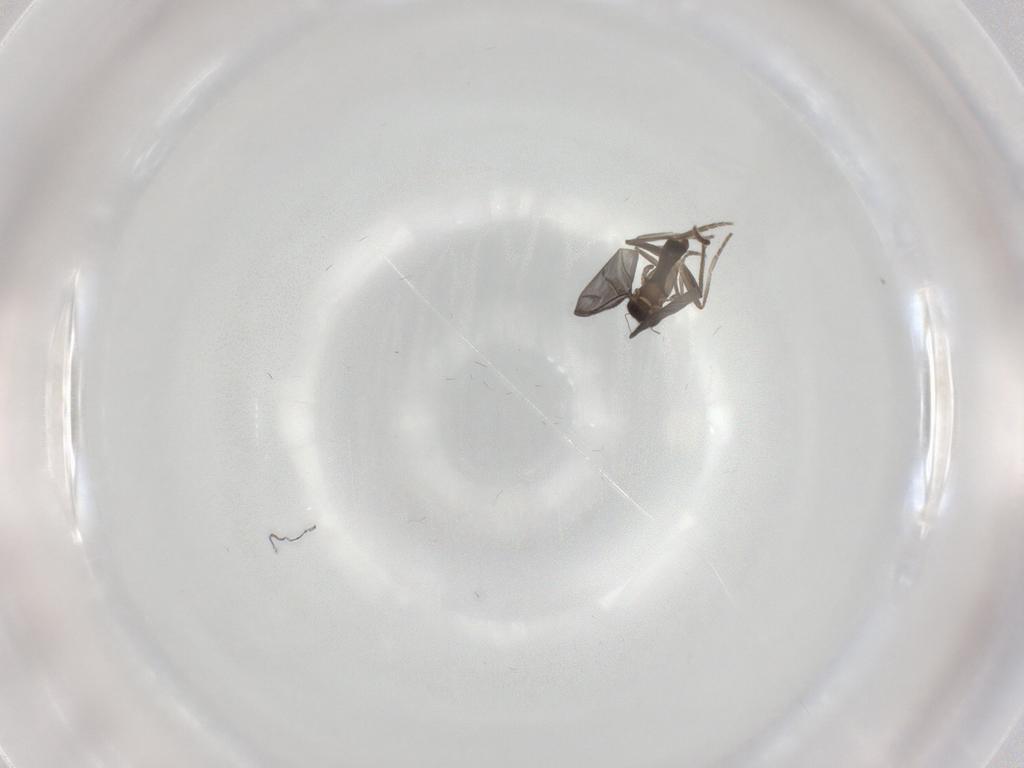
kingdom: Animalia
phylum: Arthropoda
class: Insecta
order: Diptera
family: Phoridae
